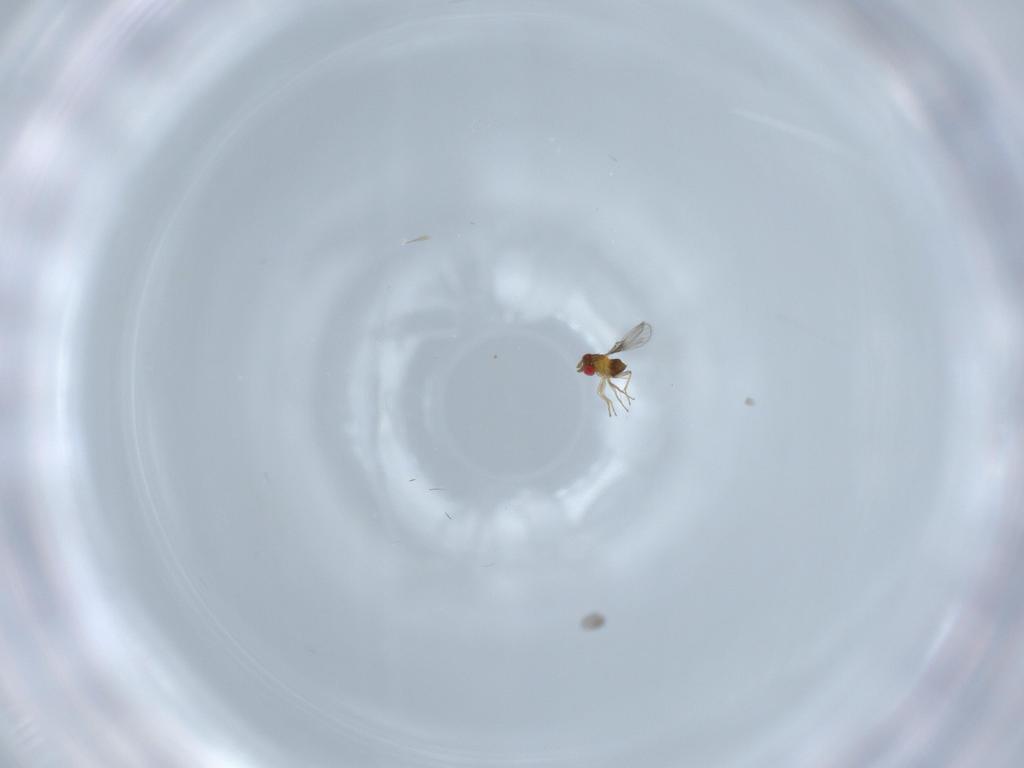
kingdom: Animalia
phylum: Arthropoda
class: Insecta
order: Hymenoptera
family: Trichogrammatidae
